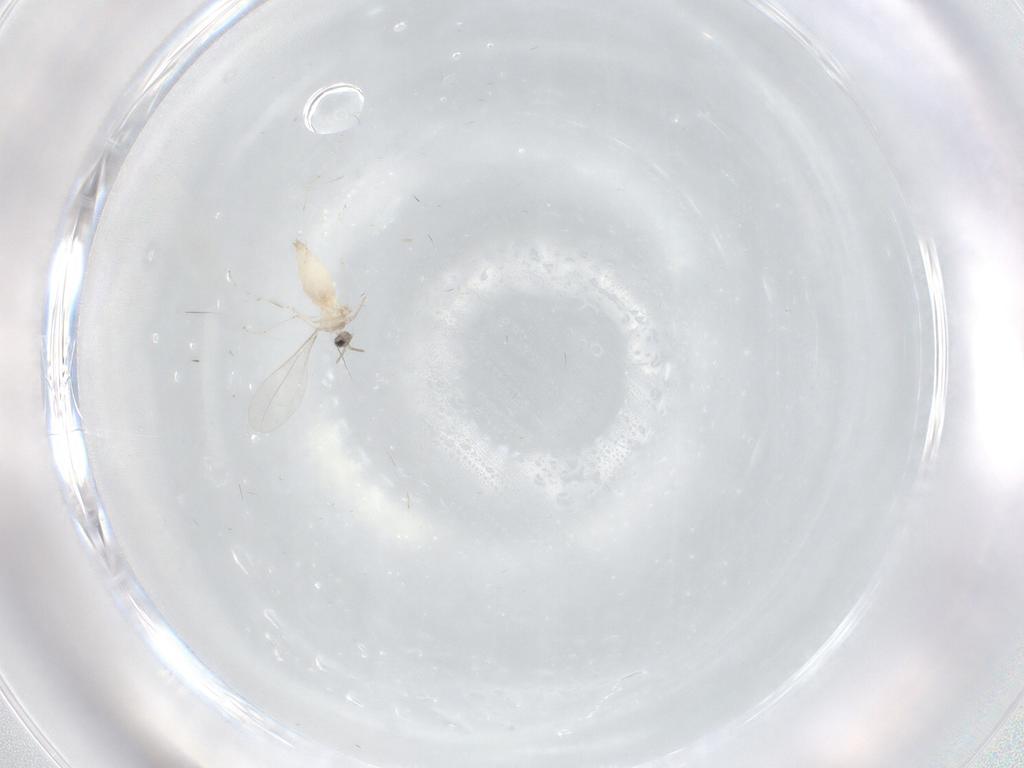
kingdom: Animalia
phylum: Arthropoda
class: Insecta
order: Diptera
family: Cecidomyiidae
